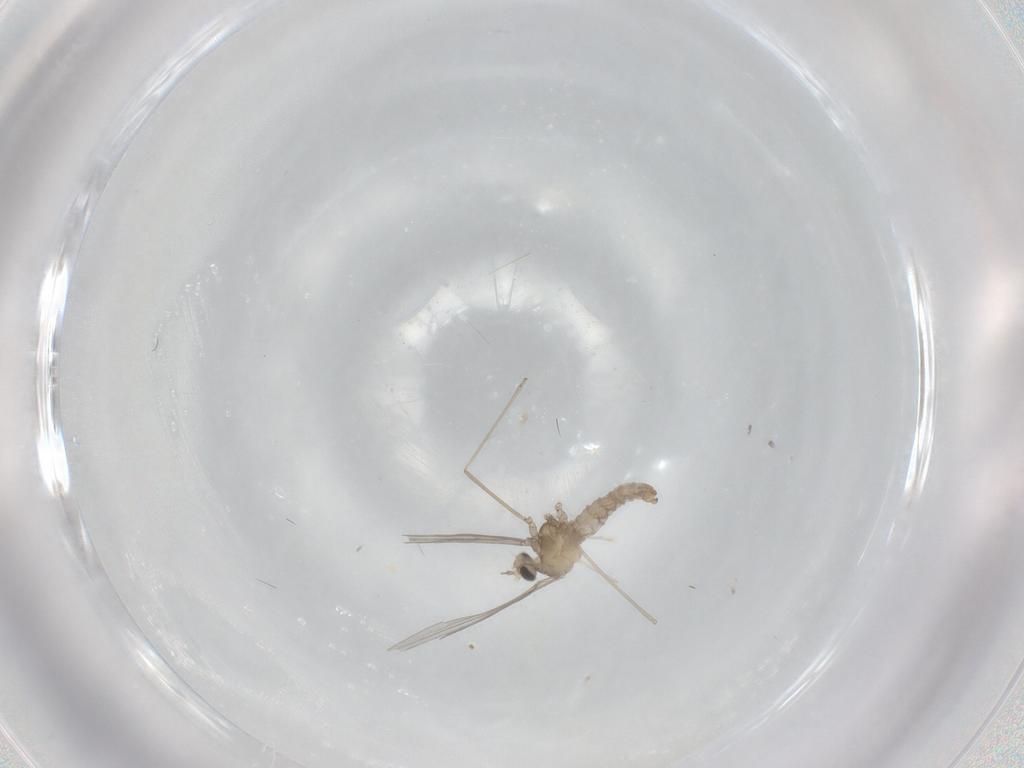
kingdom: Animalia
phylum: Arthropoda
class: Insecta
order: Diptera
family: Cecidomyiidae
